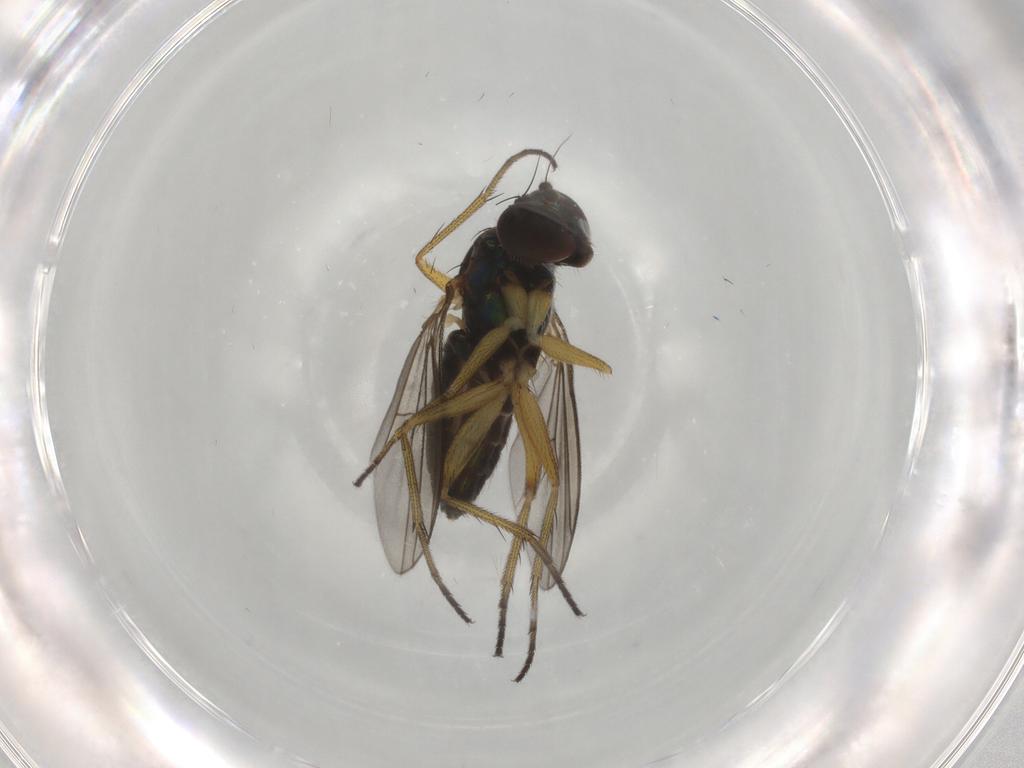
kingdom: Animalia
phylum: Arthropoda
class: Insecta
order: Diptera
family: Dolichopodidae
